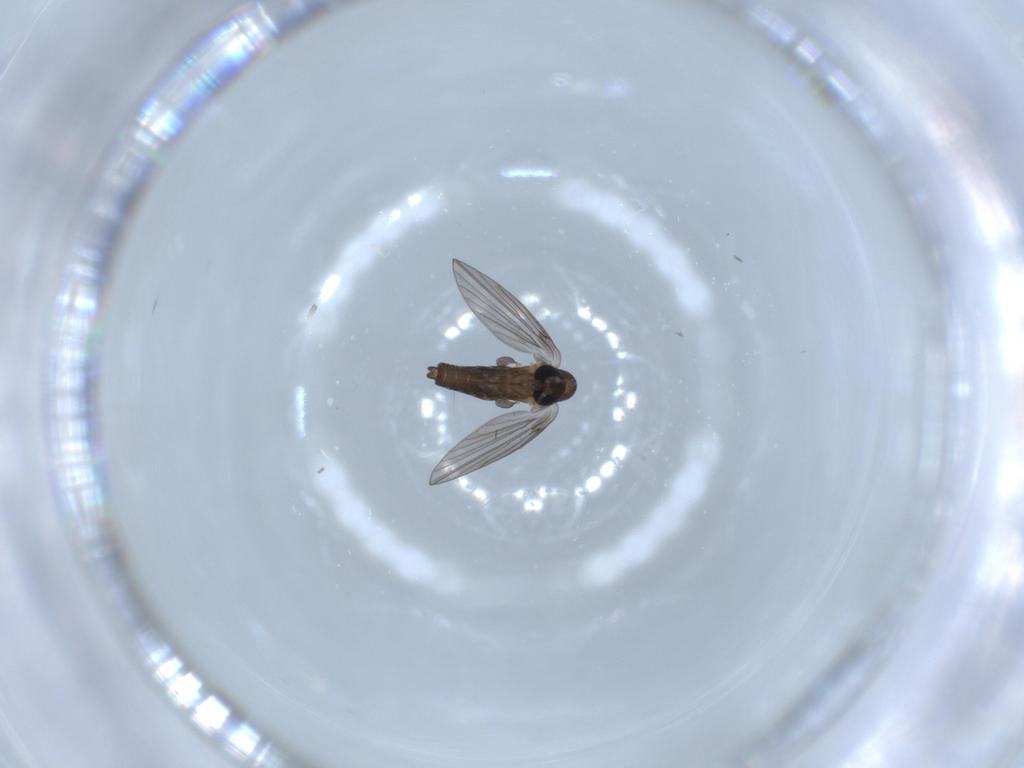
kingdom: Animalia
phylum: Arthropoda
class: Insecta
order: Diptera
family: Psychodidae
